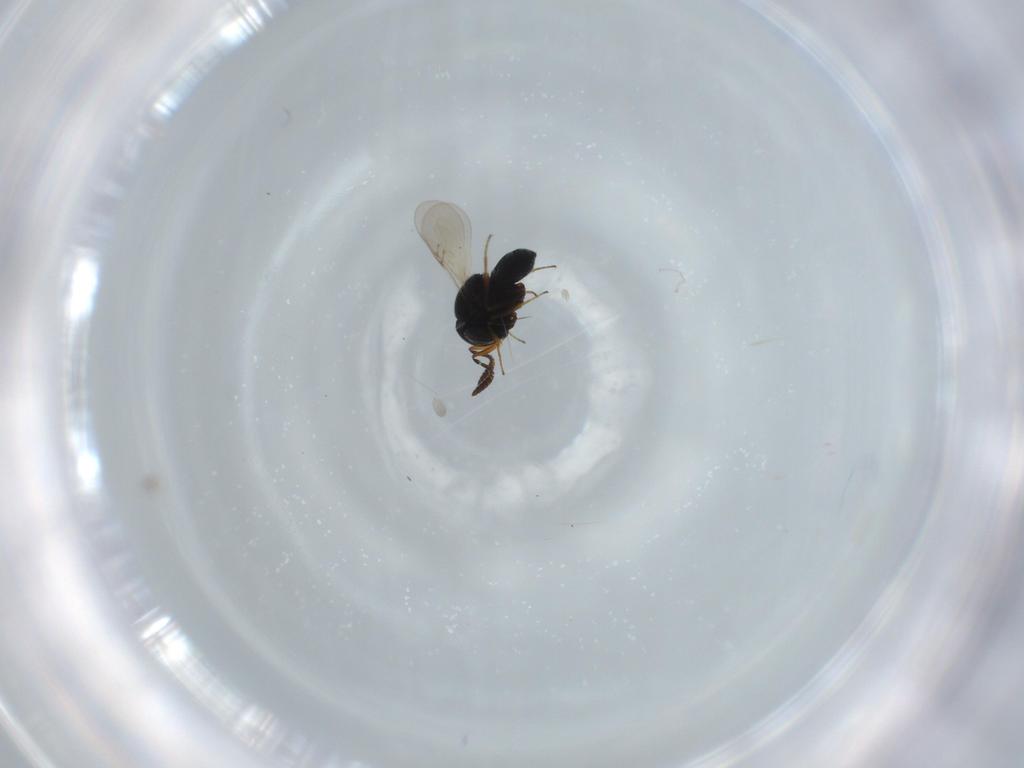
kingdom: Animalia
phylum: Arthropoda
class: Insecta
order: Hymenoptera
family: Scelionidae
